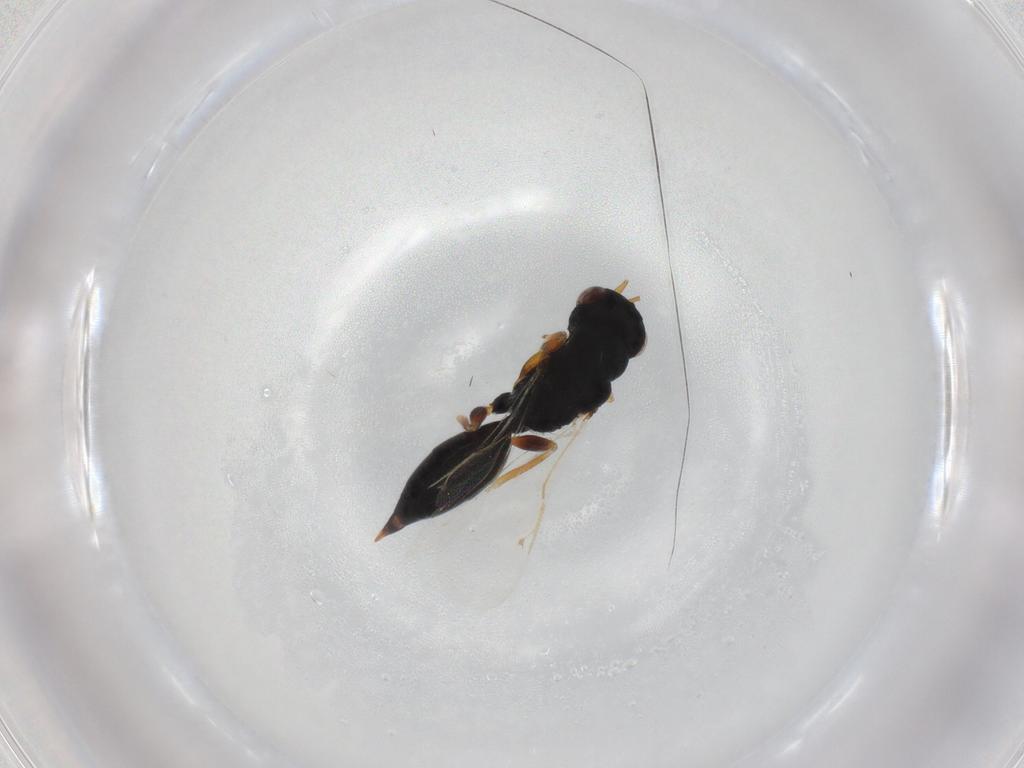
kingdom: Animalia
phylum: Arthropoda
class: Insecta
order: Hymenoptera
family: Eurytomidae
